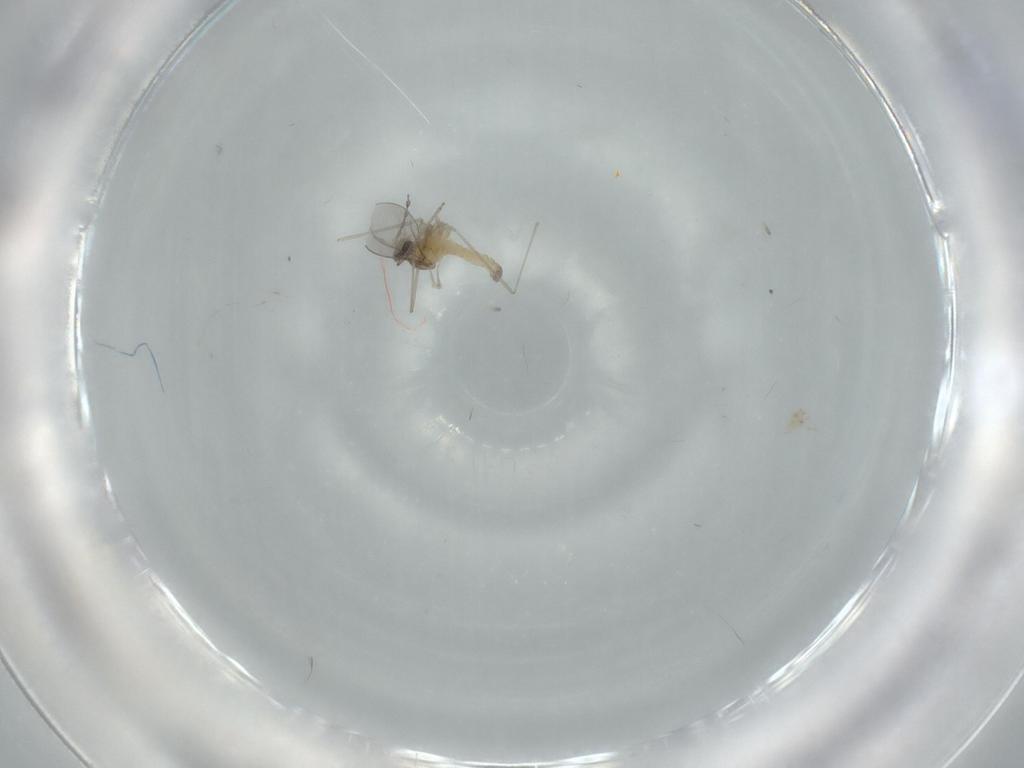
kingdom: Animalia
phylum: Arthropoda
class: Insecta
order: Diptera
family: Cecidomyiidae
